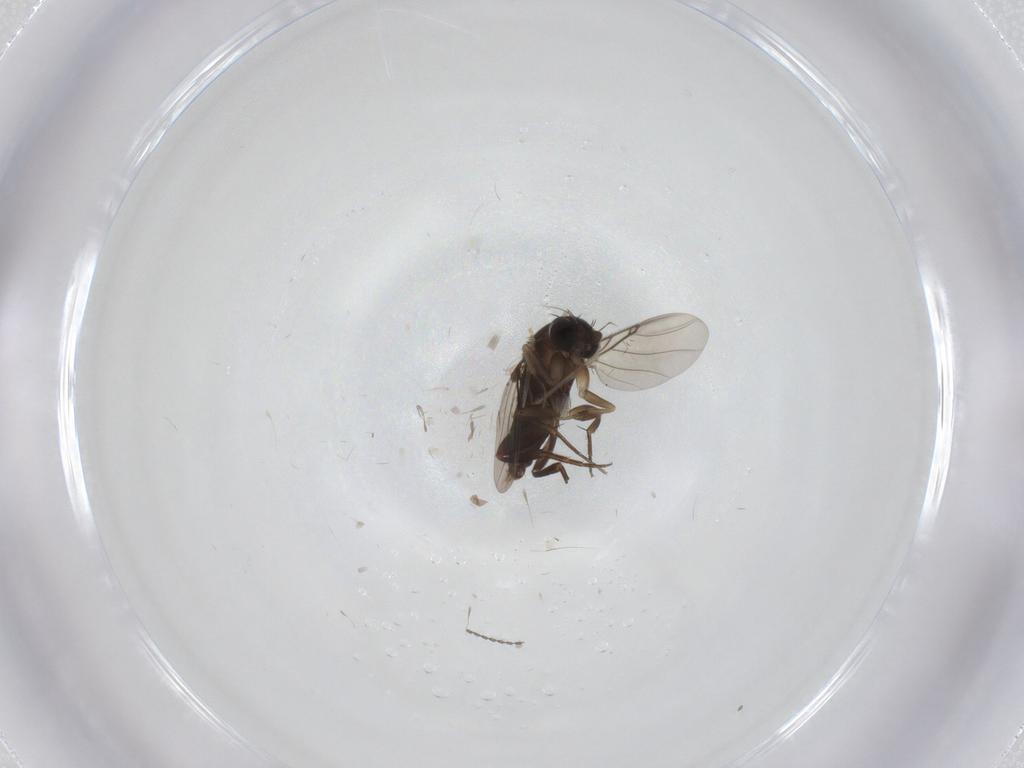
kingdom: Animalia
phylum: Arthropoda
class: Insecta
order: Diptera
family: Phoridae
